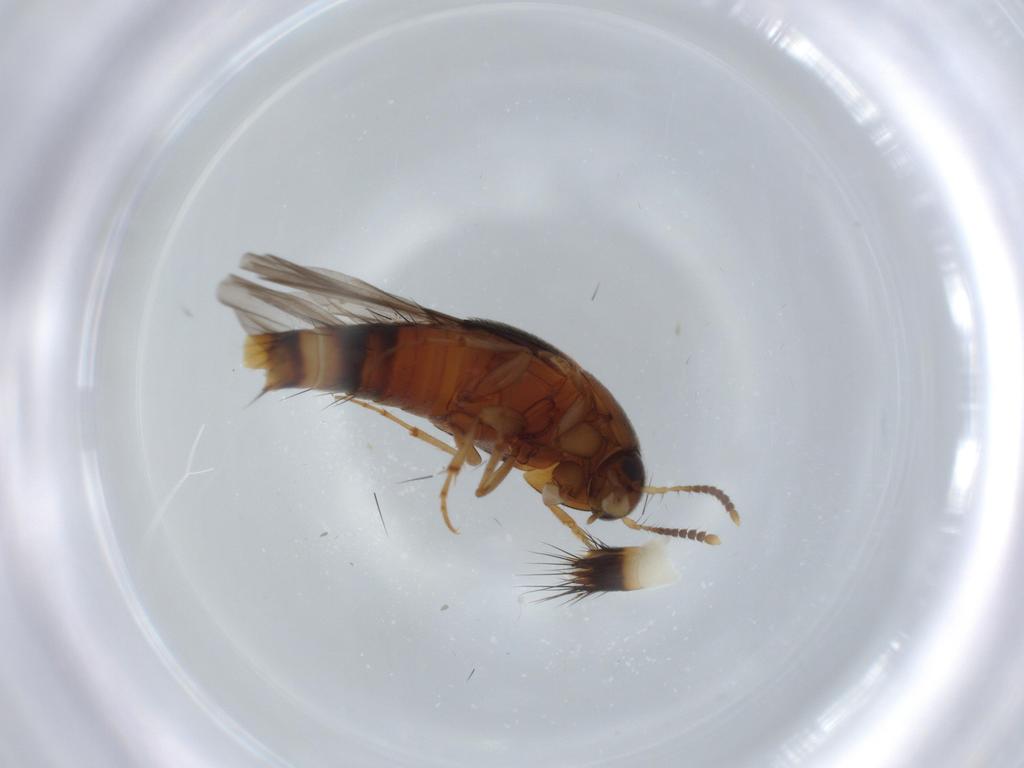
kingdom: Animalia
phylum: Arthropoda
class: Insecta
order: Coleoptera
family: Staphylinidae
